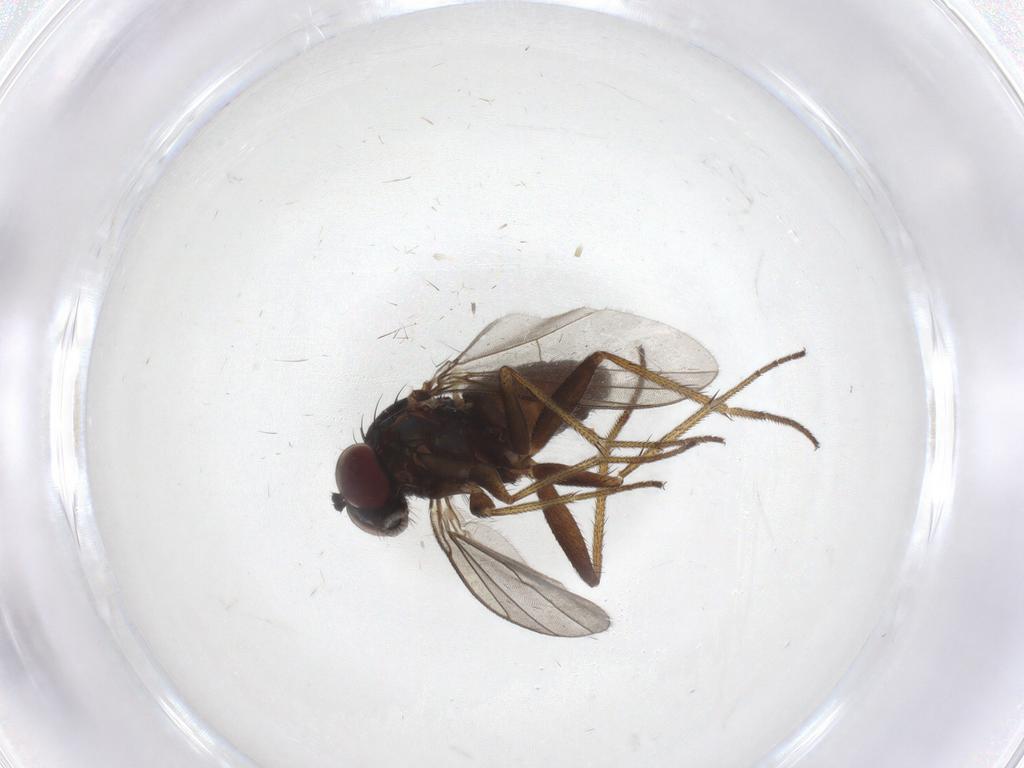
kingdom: Animalia
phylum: Arthropoda
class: Insecta
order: Diptera
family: Dolichopodidae
